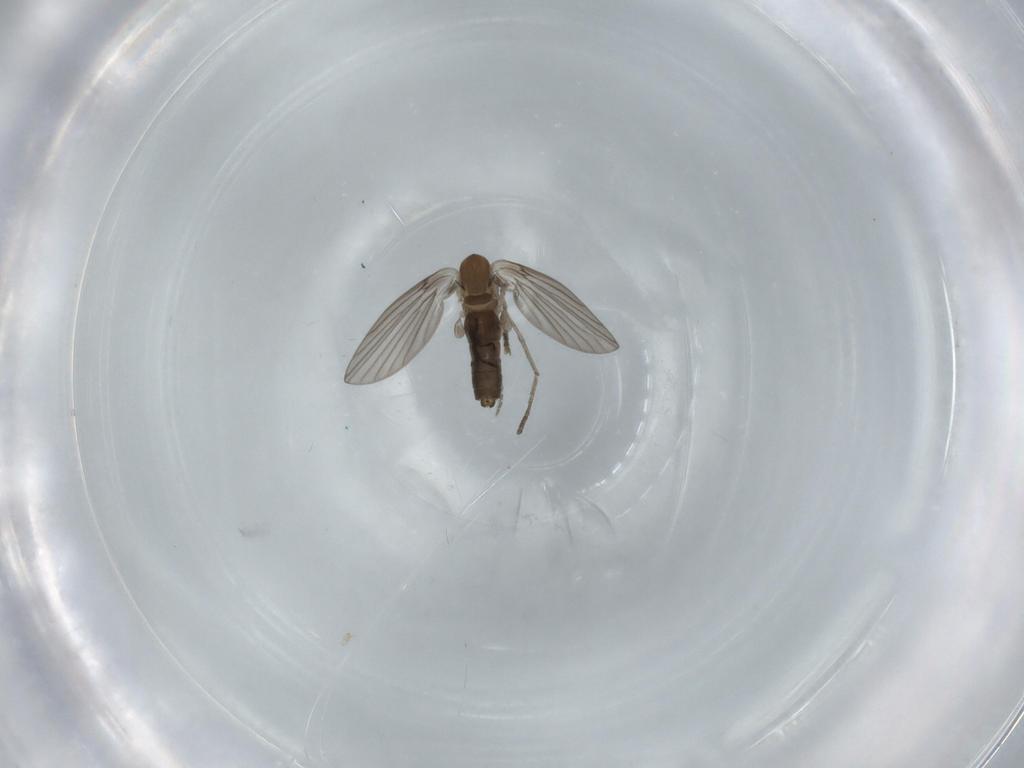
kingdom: Animalia
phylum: Arthropoda
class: Insecta
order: Diptera
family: Psychodidae
